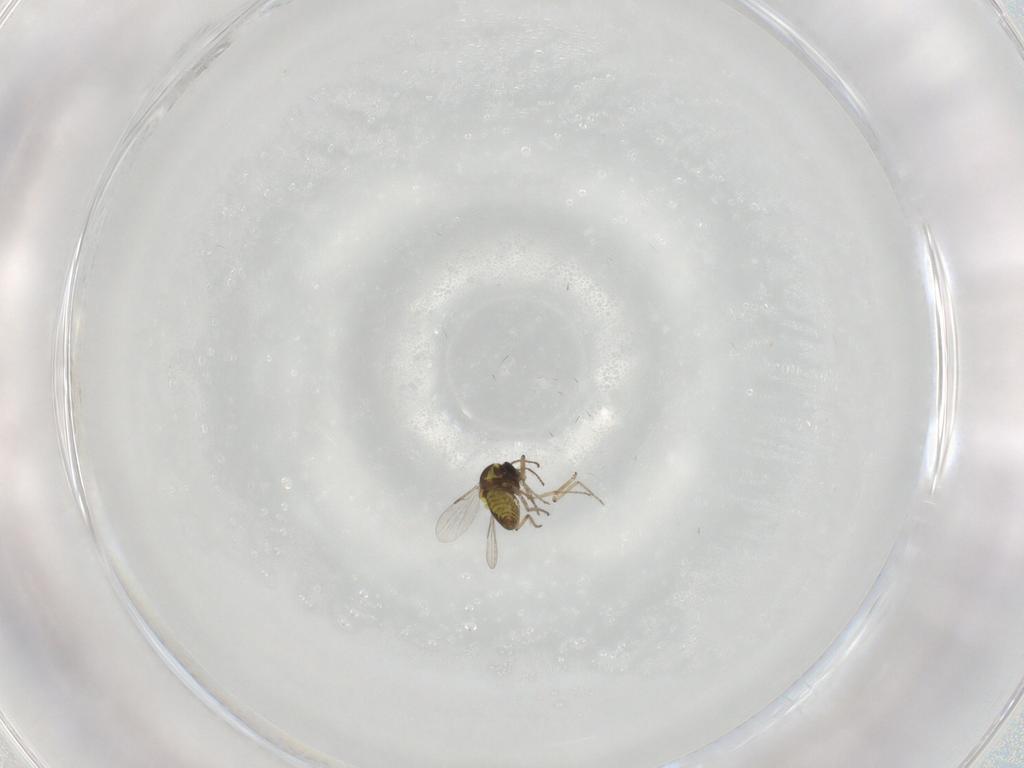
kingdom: Animalia
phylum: Arthropoda
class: Insecta
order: Diptera
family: Ceratopogonidae
